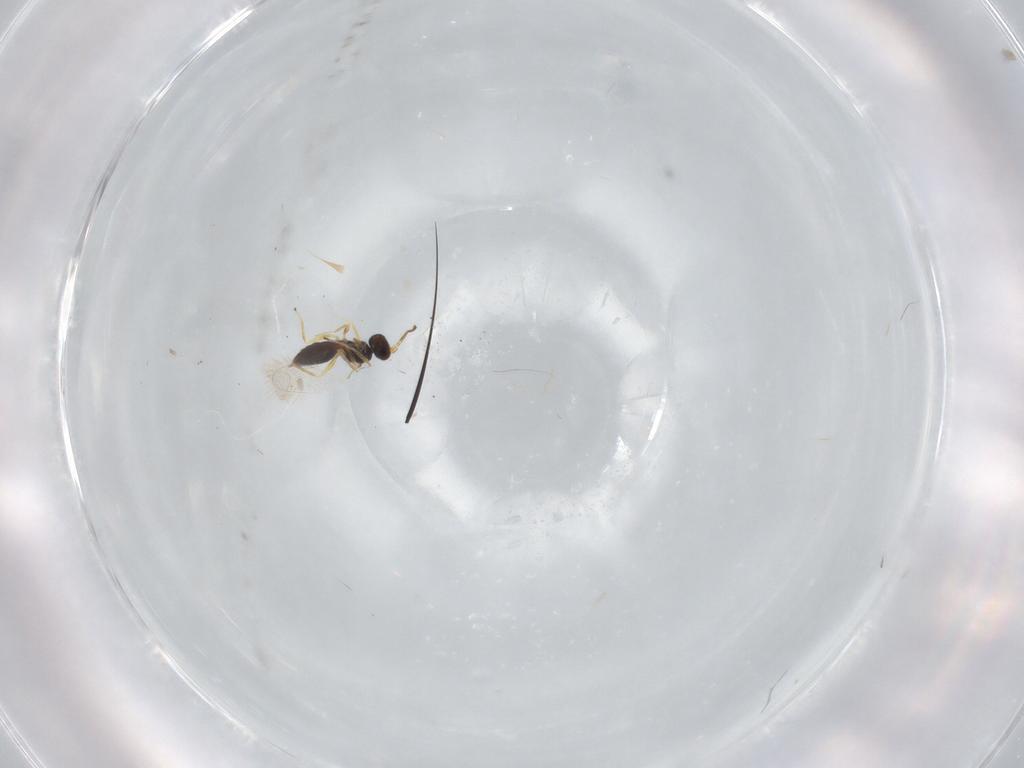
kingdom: Animalia
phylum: Arthropoda
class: Insecta
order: Hymenoptera
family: Mymaridae
